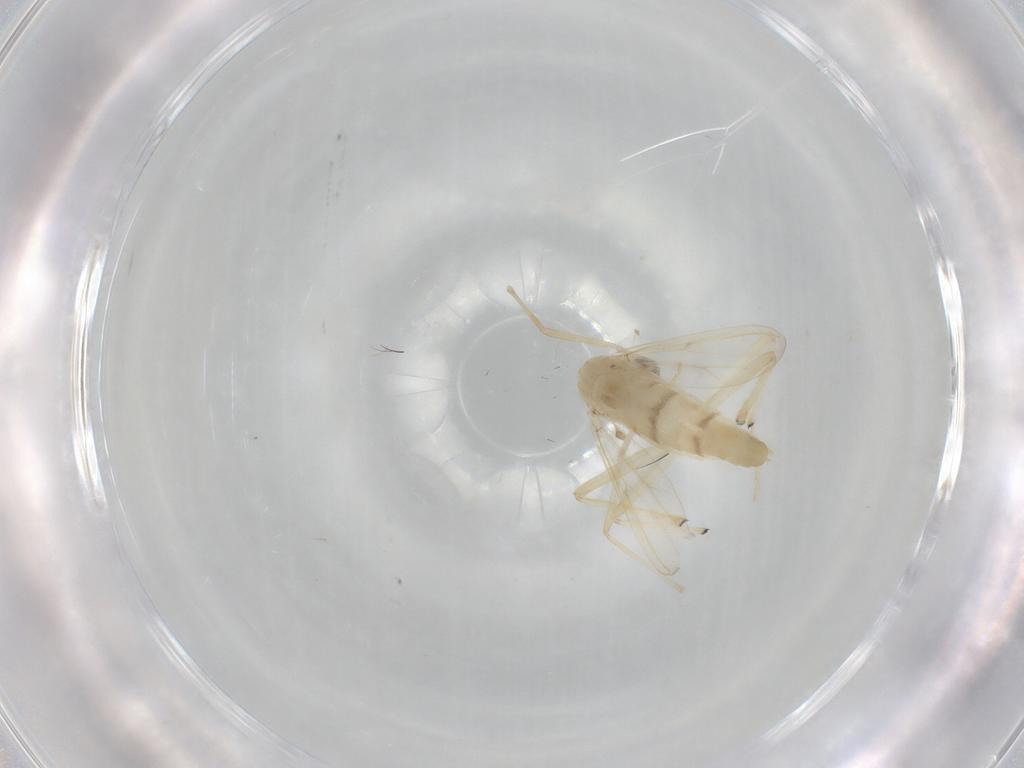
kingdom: Animalia
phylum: Arthropoda
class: Insecta
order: Diptera
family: Chironomidae
